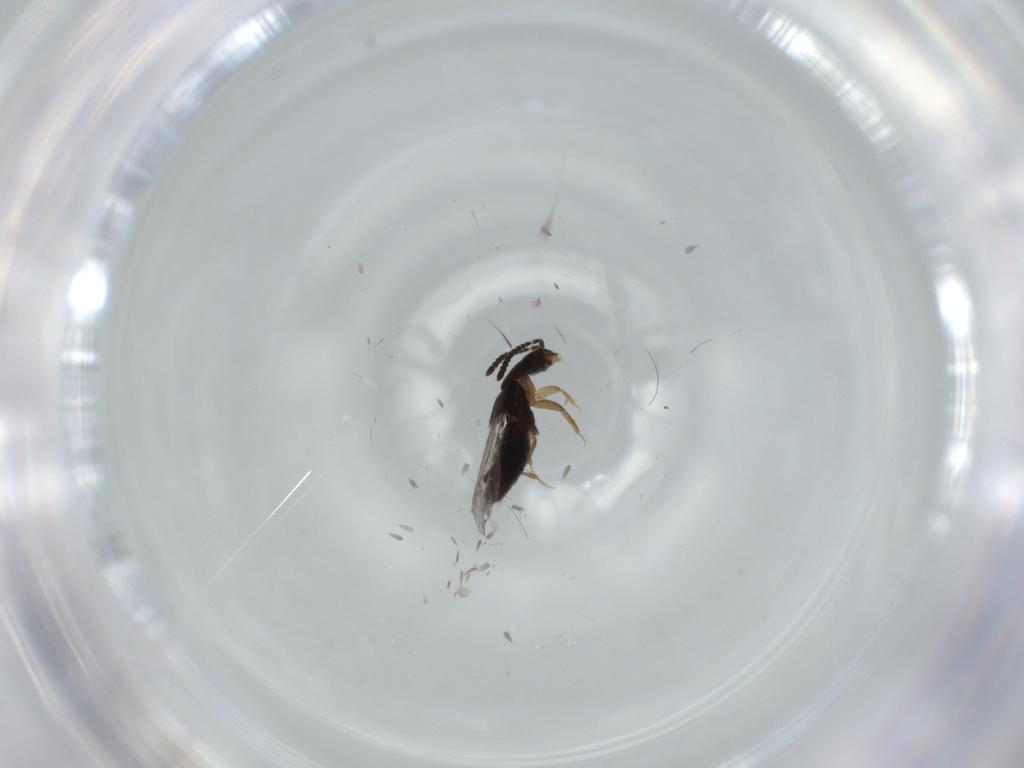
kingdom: Animalia
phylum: Arthropoda
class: Insecta
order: Coleoptera
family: Staphylinidae
